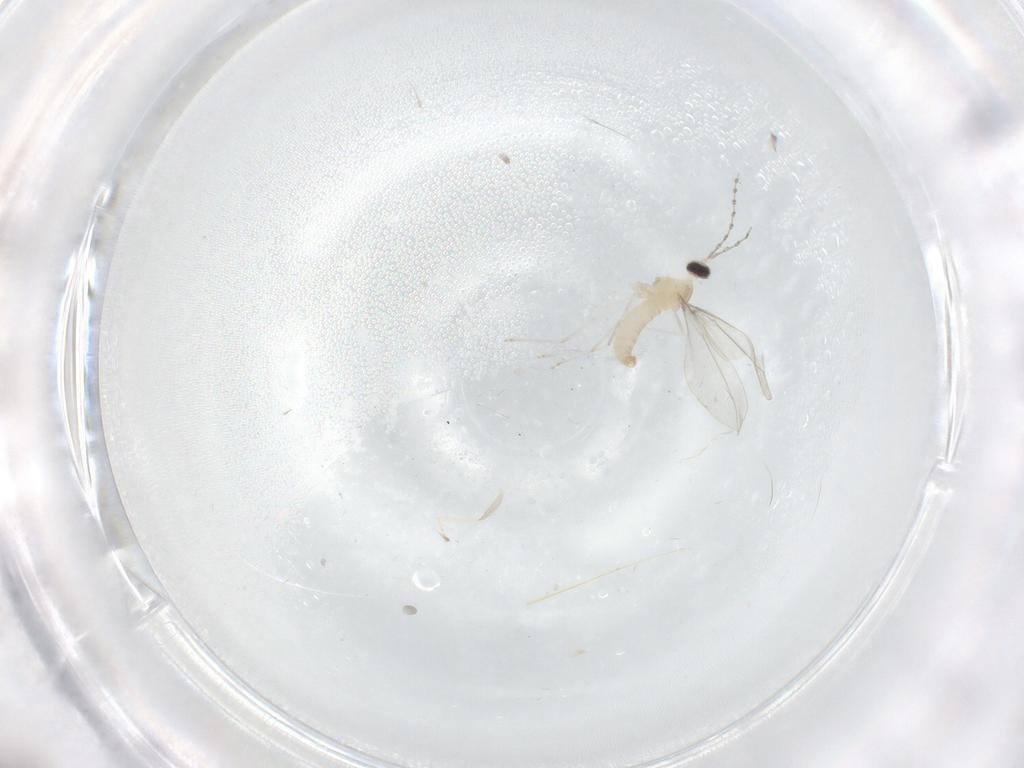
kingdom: Animalia
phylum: Arthropoda
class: Insecta
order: Diptera
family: Cecidomyiidae
